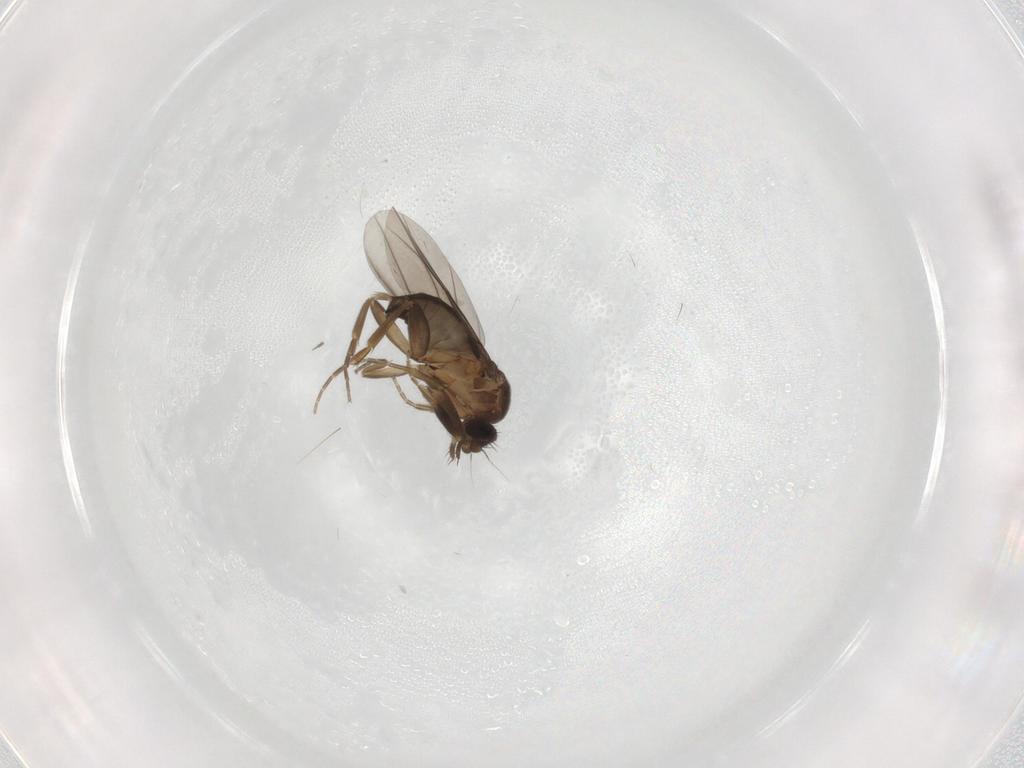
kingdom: Animalia
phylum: Arthropoda
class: Insecta
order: Diptera
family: Phoridae
